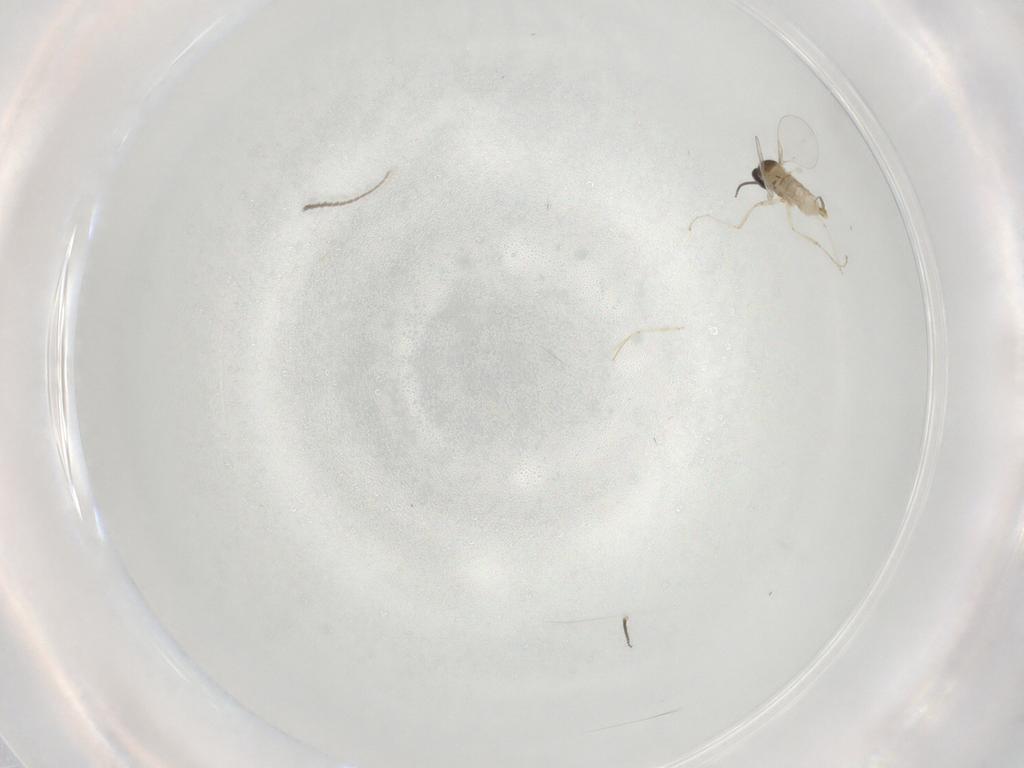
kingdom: Animalia
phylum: Arthropoda
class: Insecta
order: Diptera
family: Cecidomyiidae
